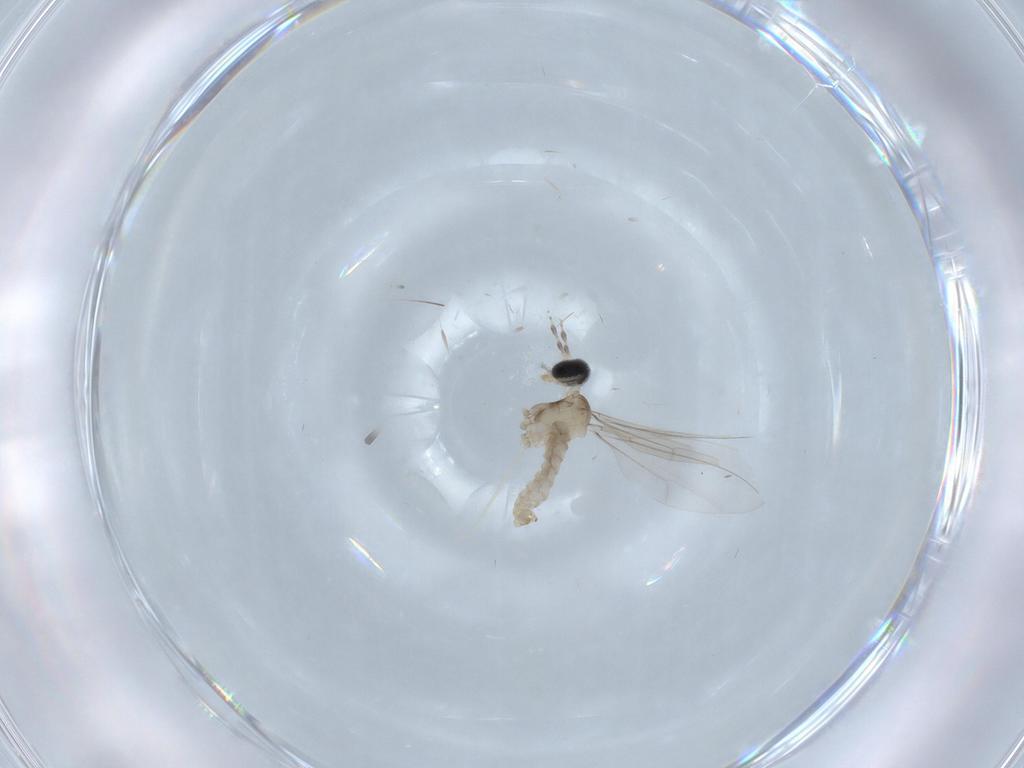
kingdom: Animalia
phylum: Arthropoda
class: Insecta
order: Diptera
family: Cecidomyiidae
